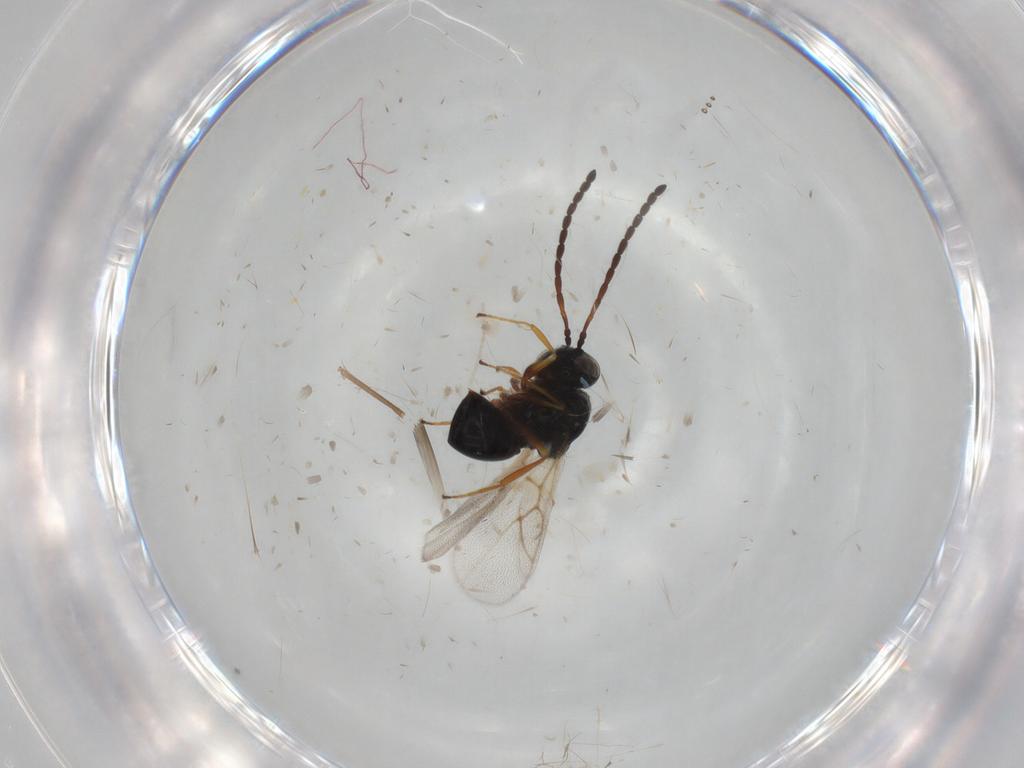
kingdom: Animalia
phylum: Arthropoda
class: Insecta
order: Hymenoptera
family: Figitidae
